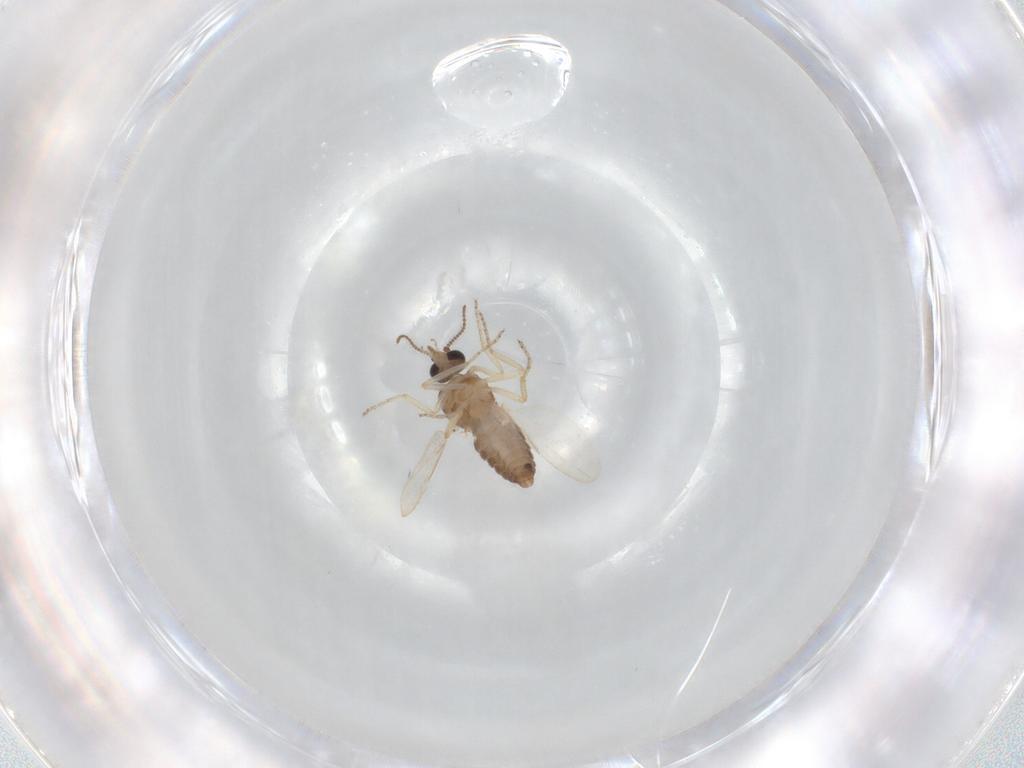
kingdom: Animalia
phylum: Arthropoda
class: Insecta
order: Diptera
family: Ceratopogonidae
